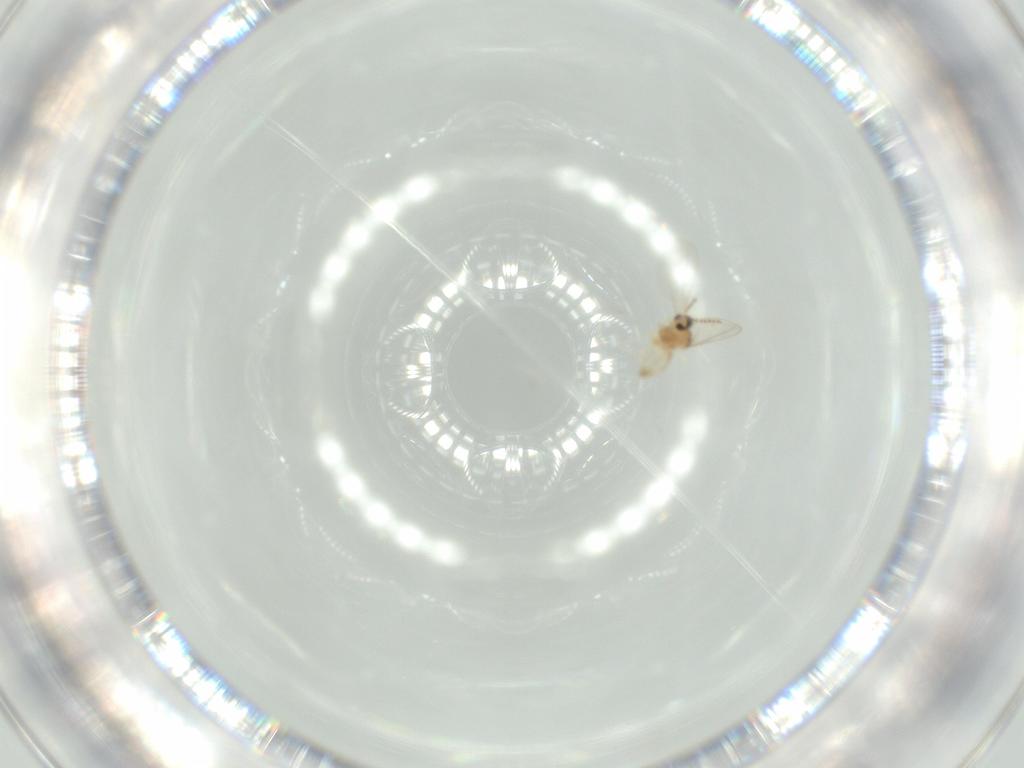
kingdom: Animalia
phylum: Arthropoda
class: Insecta
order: Diptera
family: Cecidomyiidae
